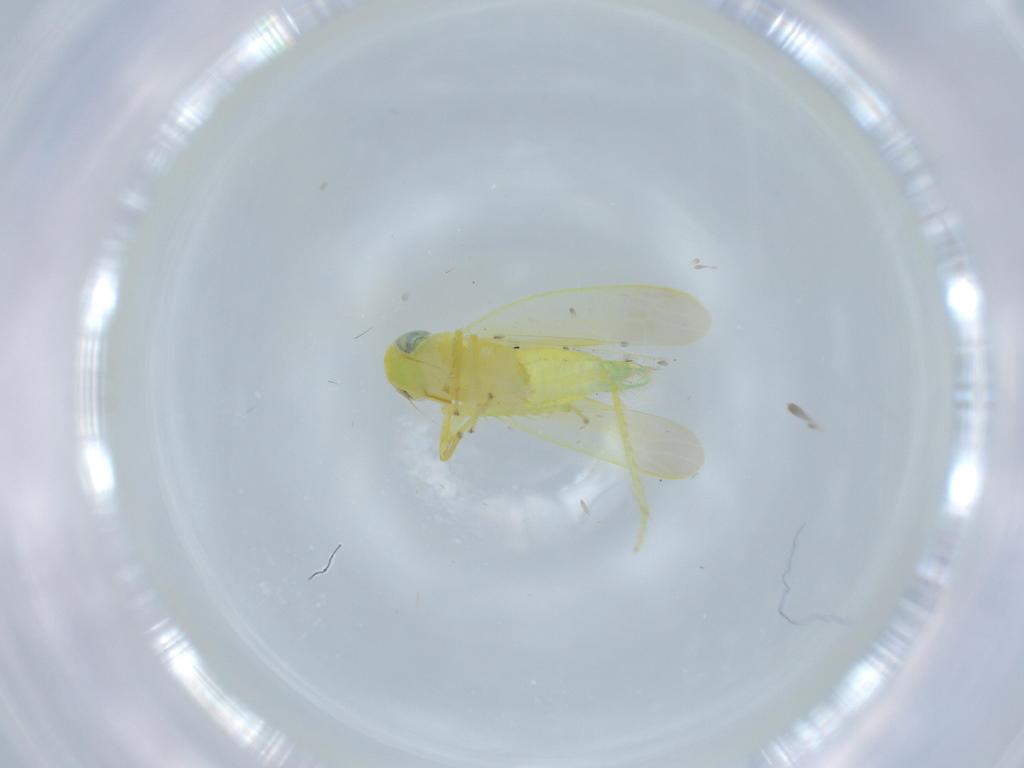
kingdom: Animalia
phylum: Arthropoda
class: Insecta
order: Hemiptera
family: Cicadellidae
